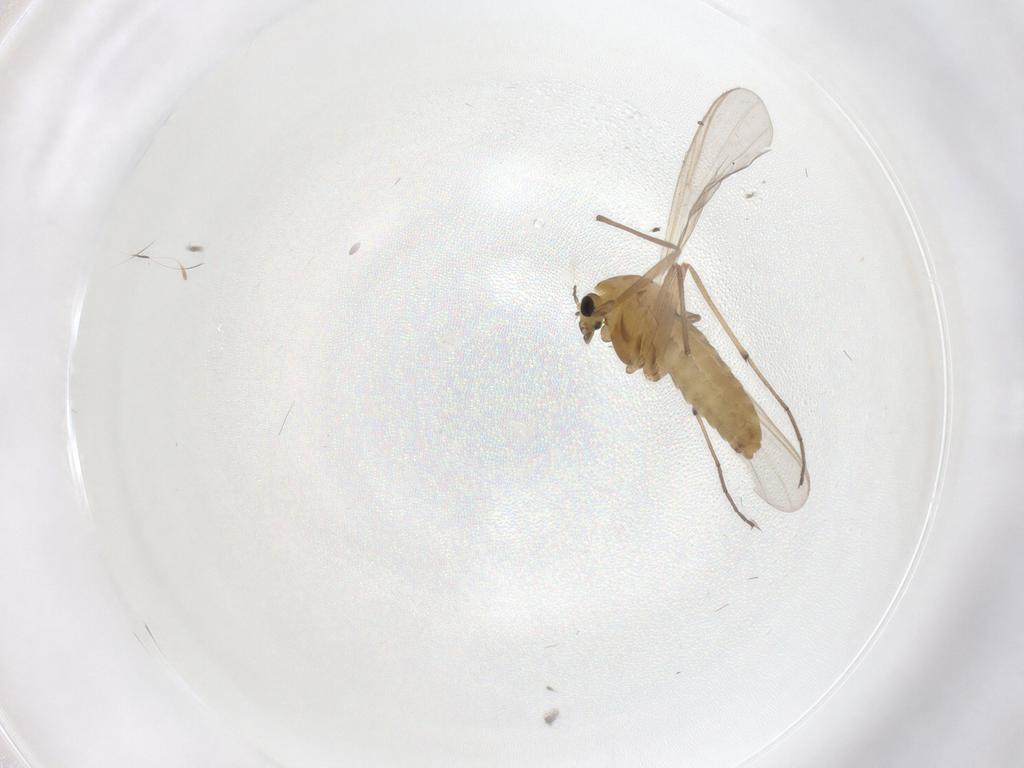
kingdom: Animalia
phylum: Arthropoda
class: Insecta
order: Diptera
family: Chironomidae
